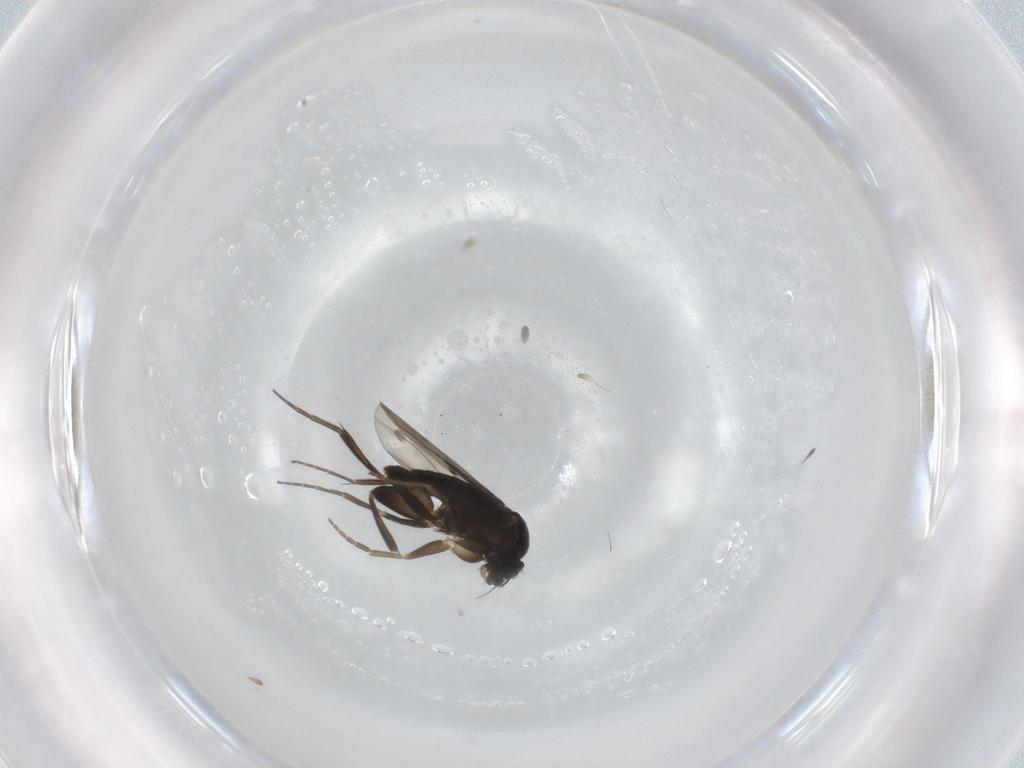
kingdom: Animalia
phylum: Arthropoda
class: Insecta
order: Diptera
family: Phoridae
